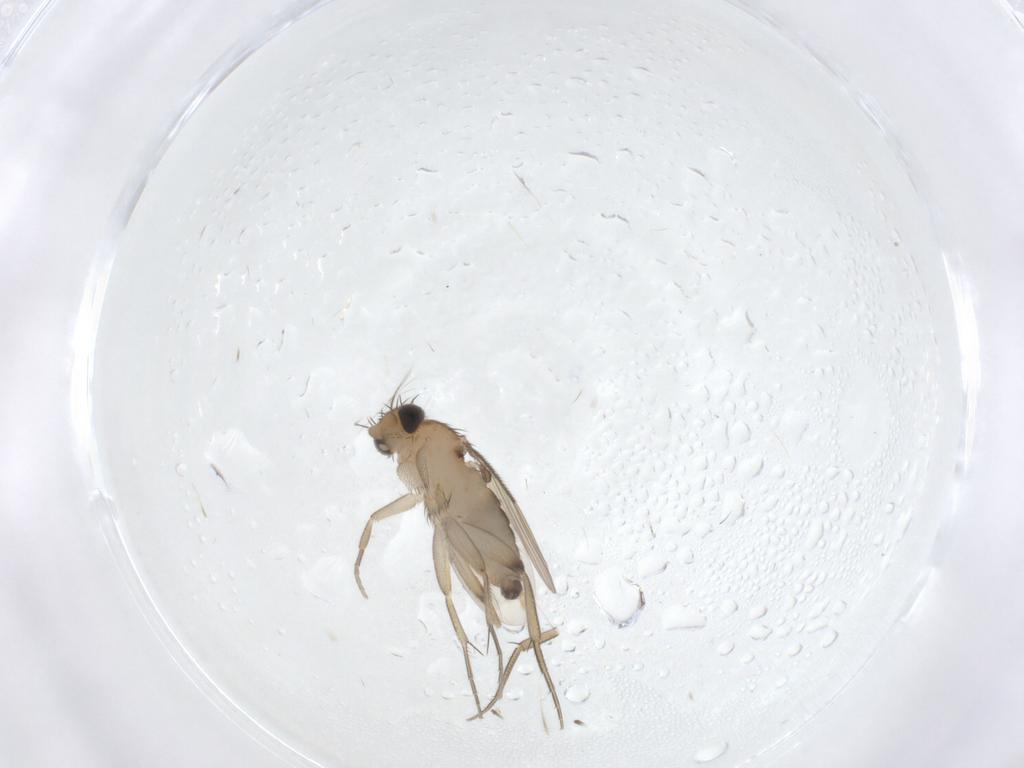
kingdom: Animalia
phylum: Arthropoda
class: Insecta
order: Diptera
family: Phoridae
